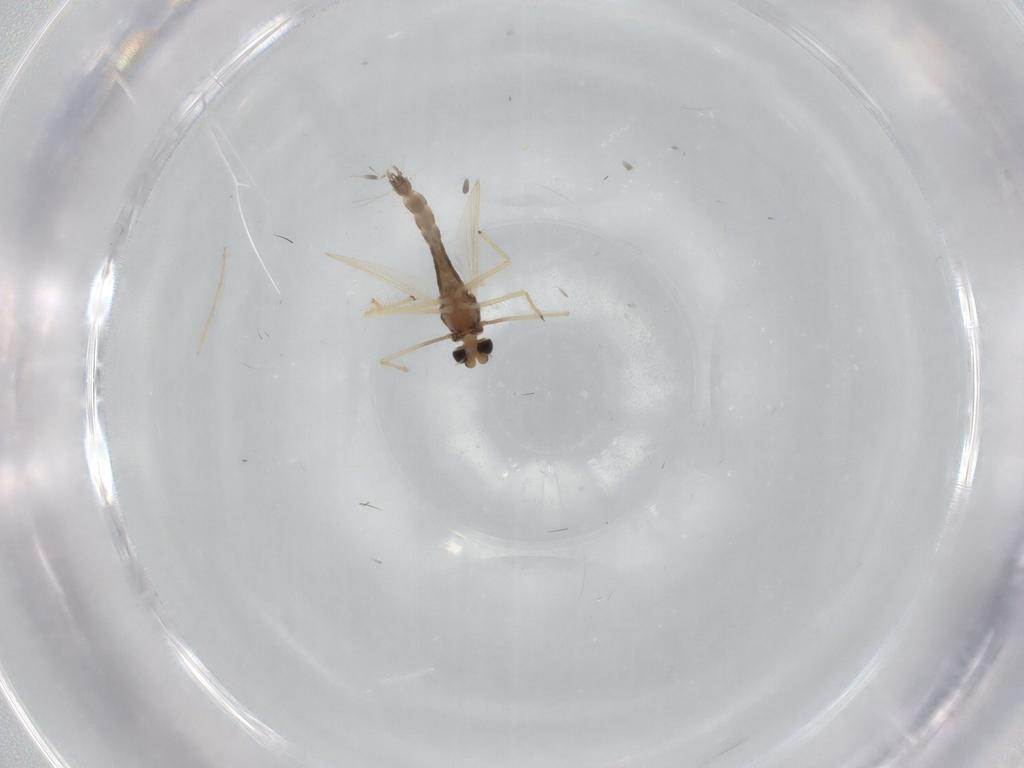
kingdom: Animalia
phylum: Arthropoda
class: Insecta
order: Diptera
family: Chironomidae
